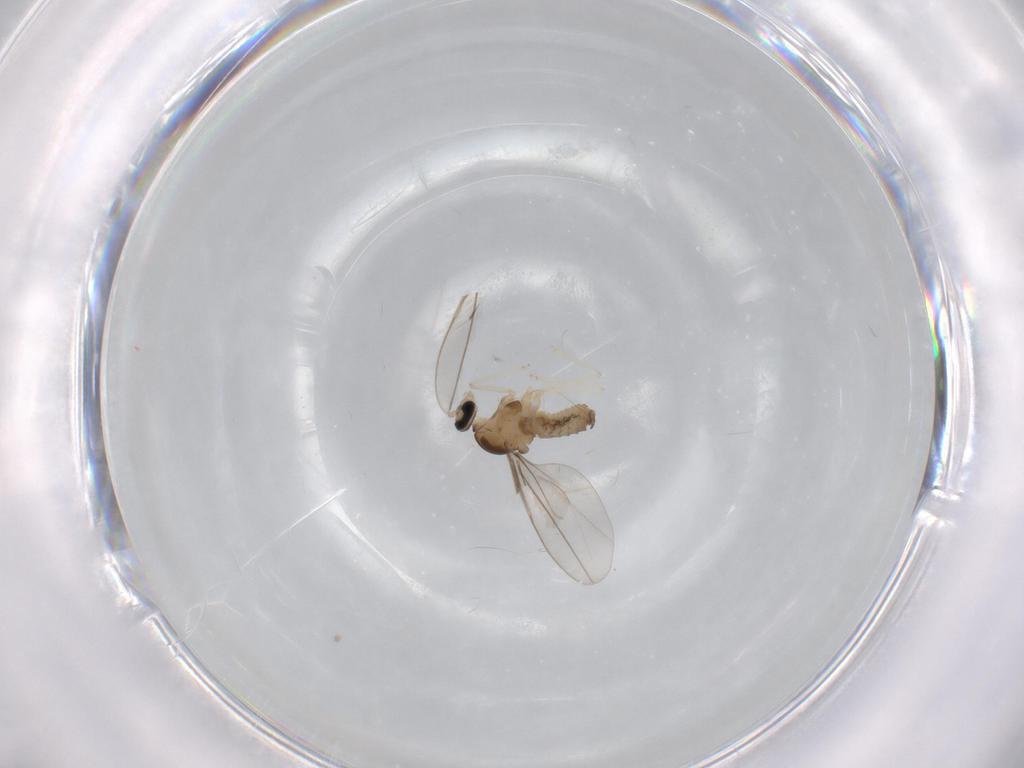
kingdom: Animalia
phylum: Arthropoda
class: Insecta
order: Diptera
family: Cecidomyiidae
